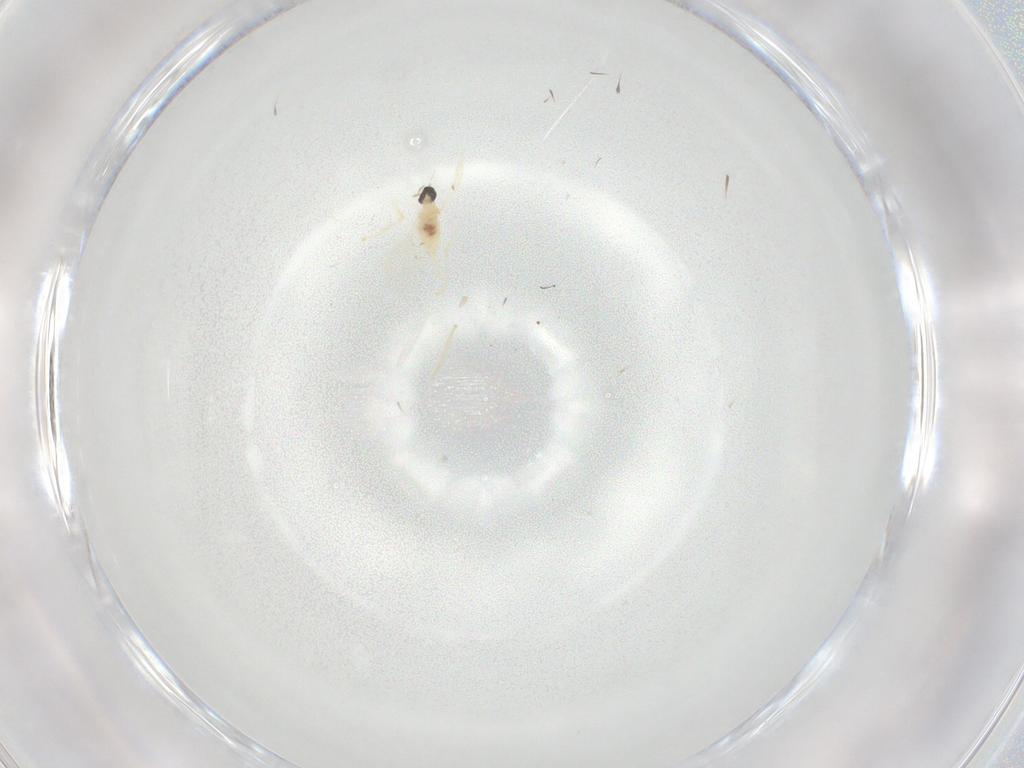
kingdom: Animalia
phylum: Arthropoda
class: Insecta
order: Diptera
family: Cecidomyiidae
